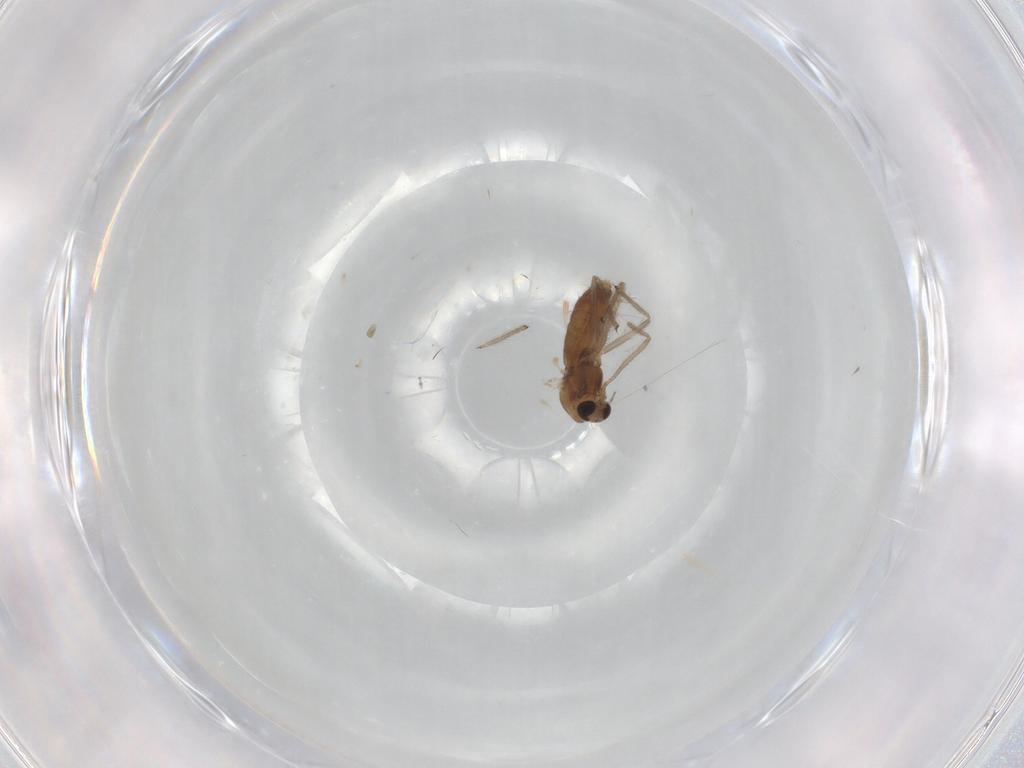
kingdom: Animalia
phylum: Arthropoda
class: Insecta
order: Diptera
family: Chironomidae
